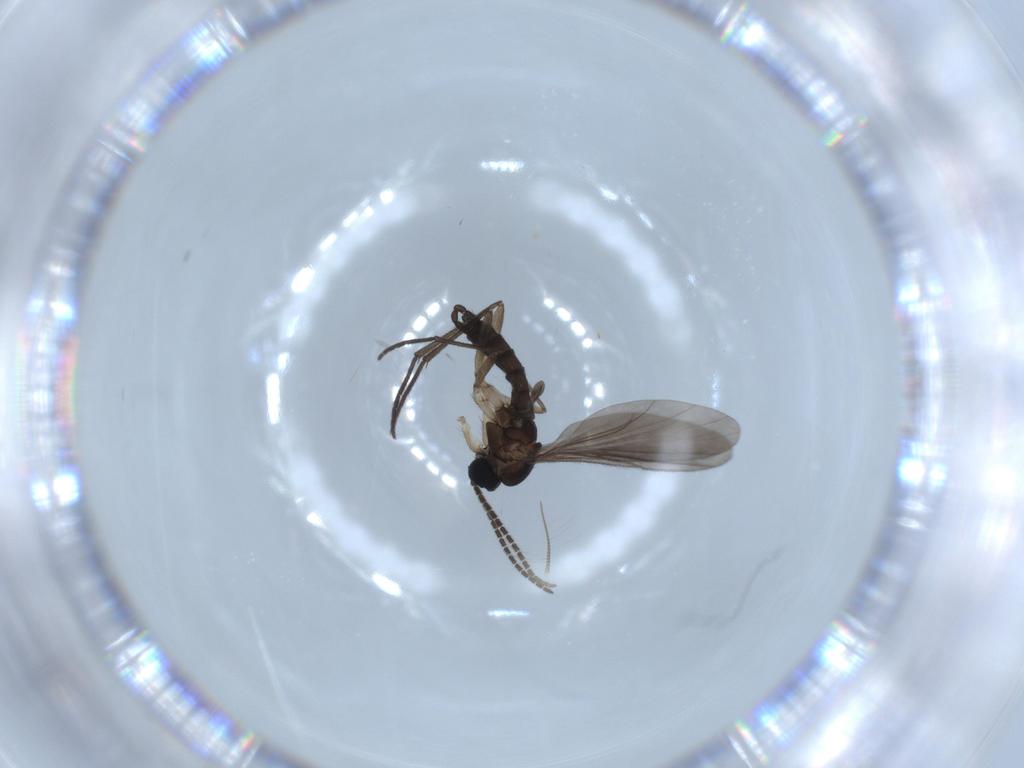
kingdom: Animalia
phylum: Arthropoda
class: Insecta
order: Diptera
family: Sciaridae
